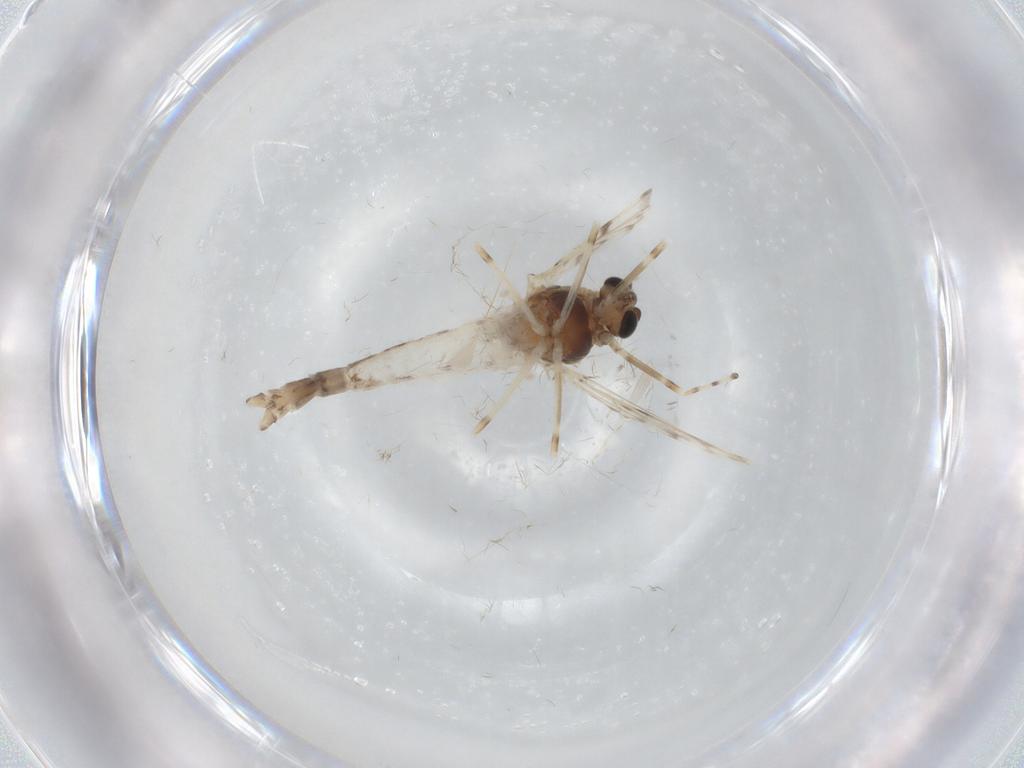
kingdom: Animalia
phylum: Arthropoda
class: Insecta
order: Diptera
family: Chironomidae
